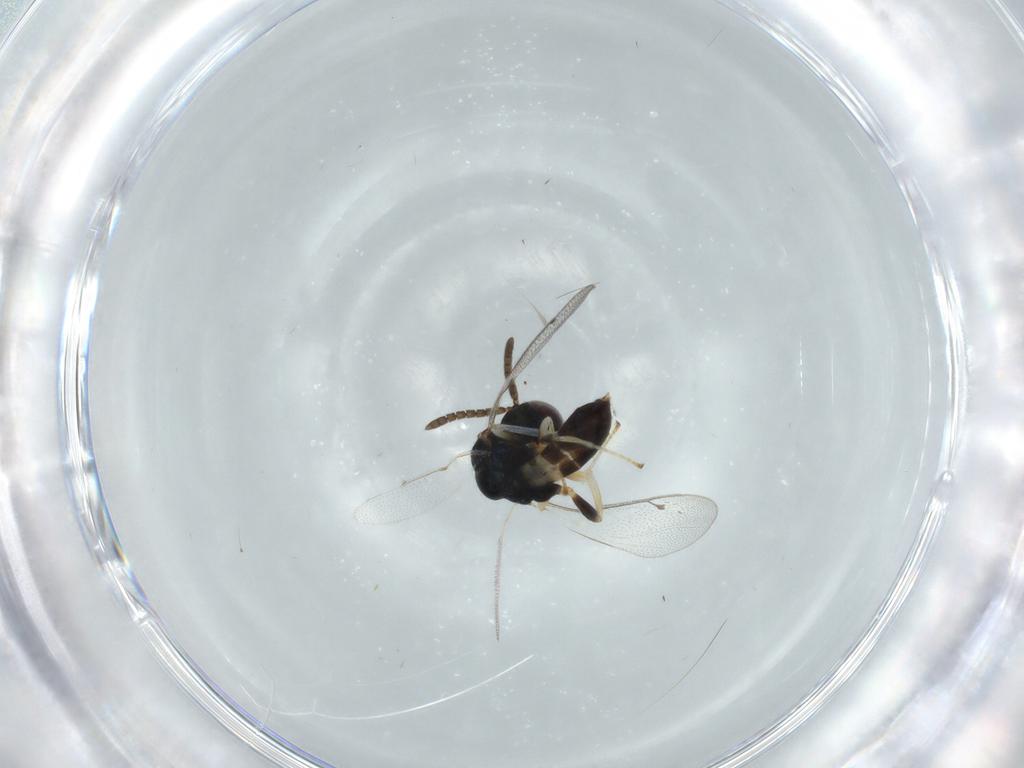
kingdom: Animalia
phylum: Arthropoda
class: Insecta
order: Hymenoptera
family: Pteromalidae
